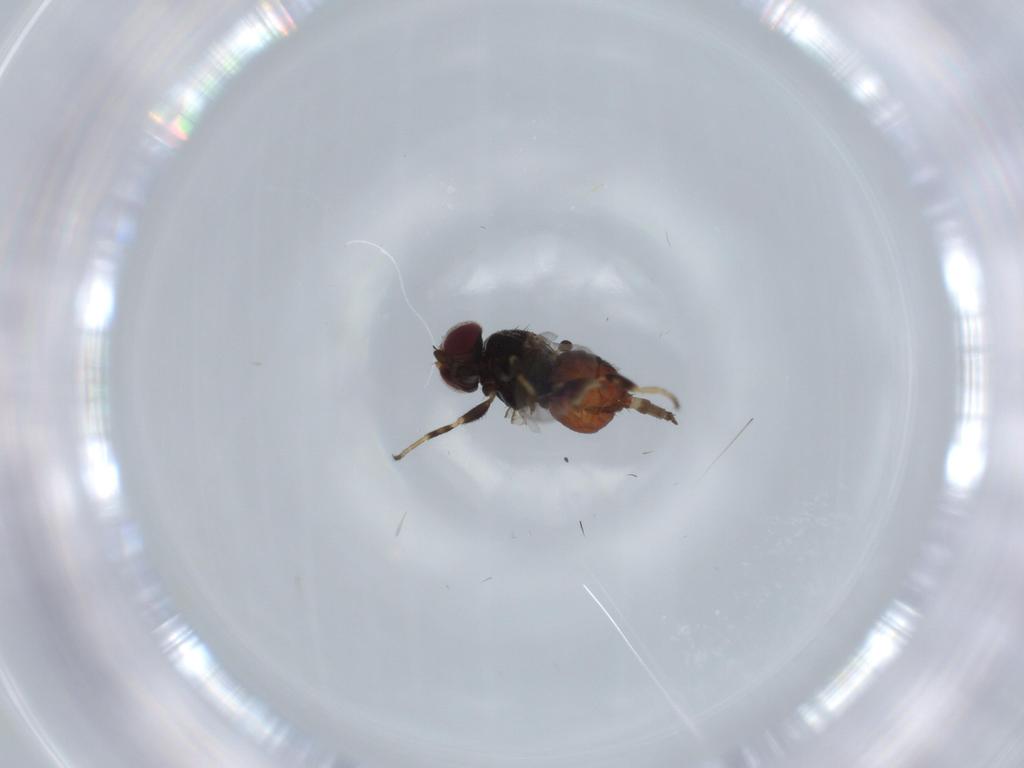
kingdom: Animalia
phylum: Arthropoda
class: Insecta
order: Diptera
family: Chloropidae
